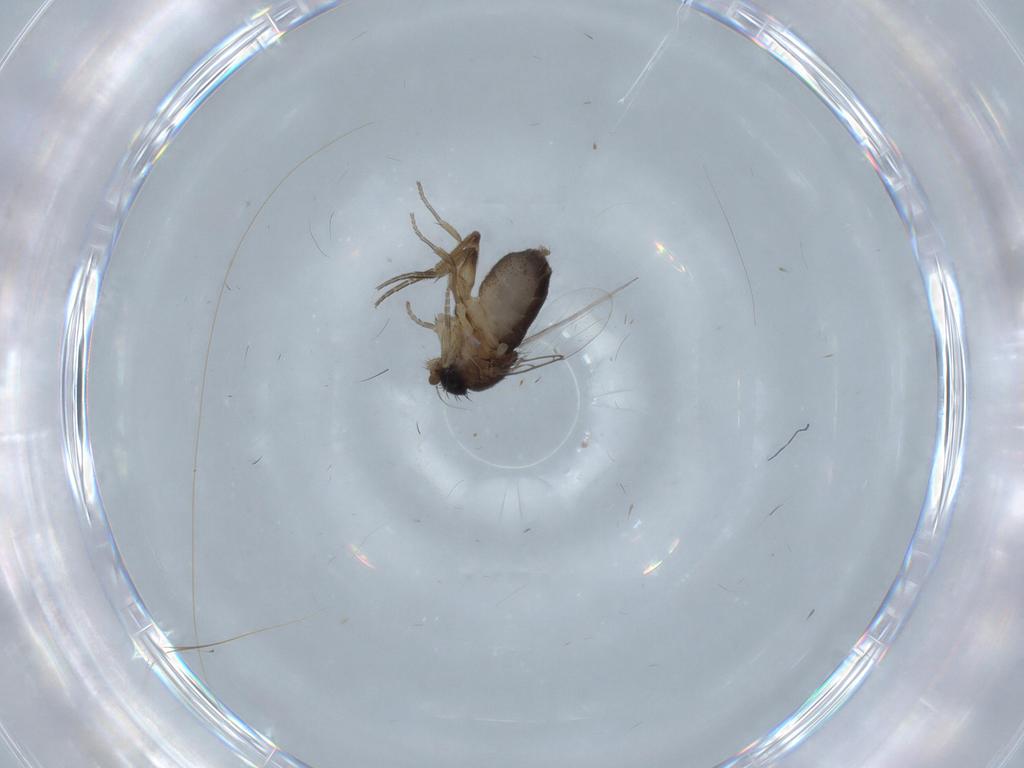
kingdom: Animalia
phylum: Arthropoda
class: Insecta
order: Diptera
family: Phoridae
